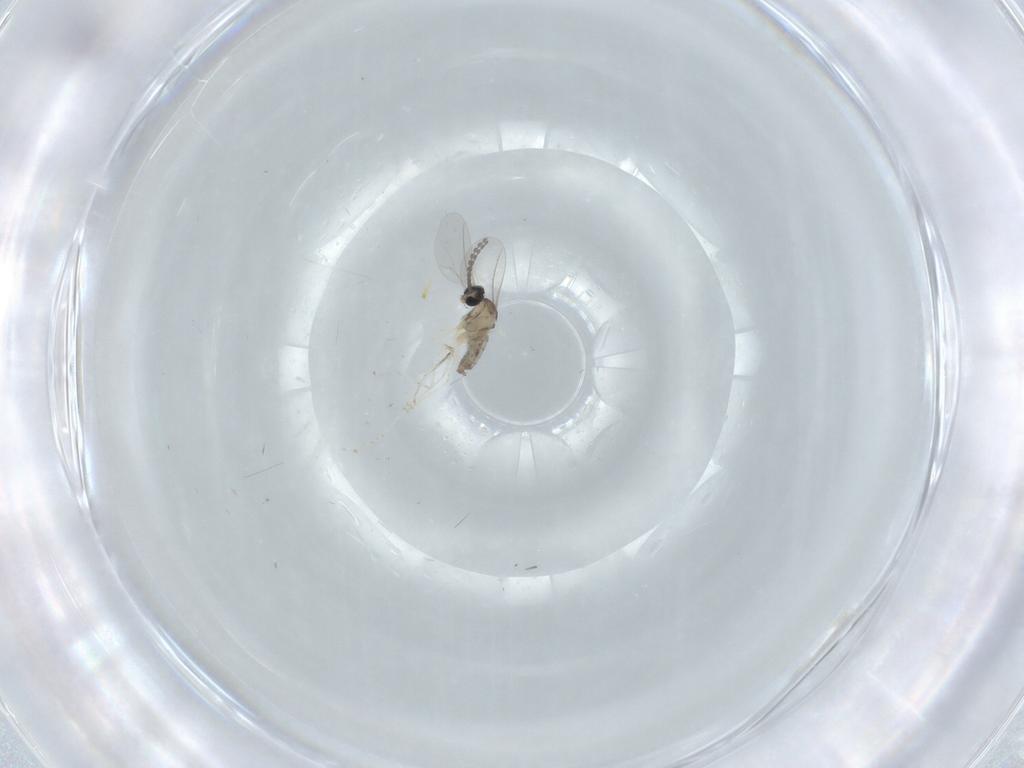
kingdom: Animalia
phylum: Arthropoda
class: Insecta
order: Diptera
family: Cecidomyiidae
